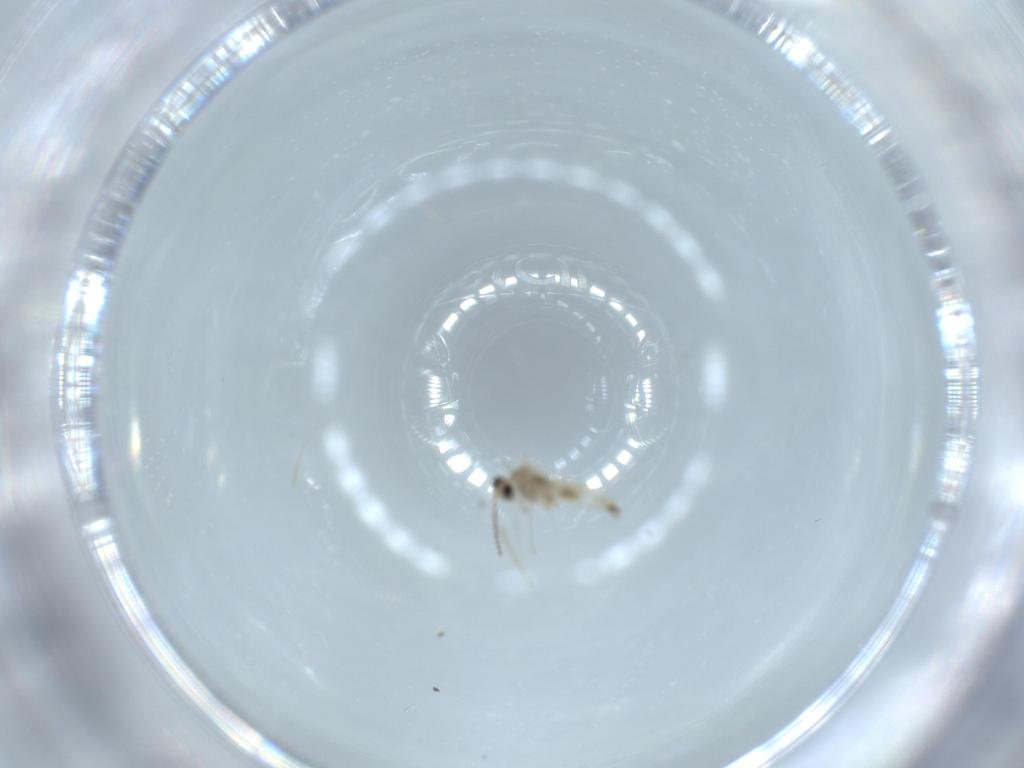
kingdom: Animalia
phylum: Arthropoda
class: Insecta
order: Diptera
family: Cecidomyiidae
